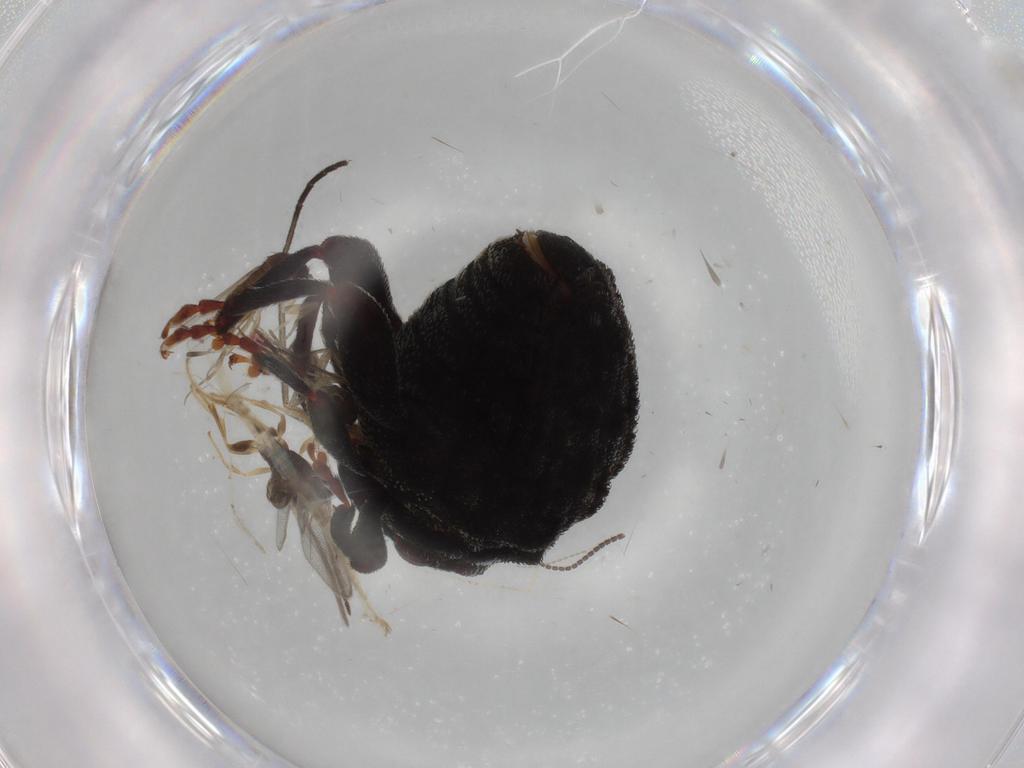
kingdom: Animalia
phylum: Arthropoda
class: Insecta
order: Coleoptera
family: Curculionidae
